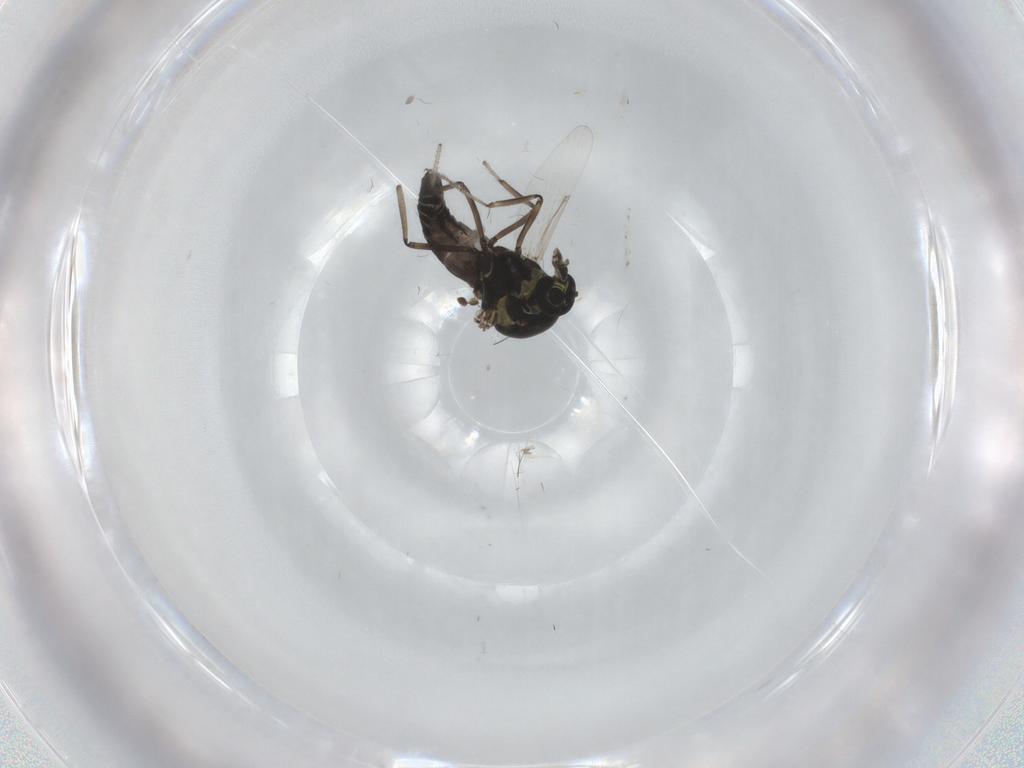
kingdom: Animalia
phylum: Arthropoda
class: Insecta
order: Diptera
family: Ceratopogonidae
